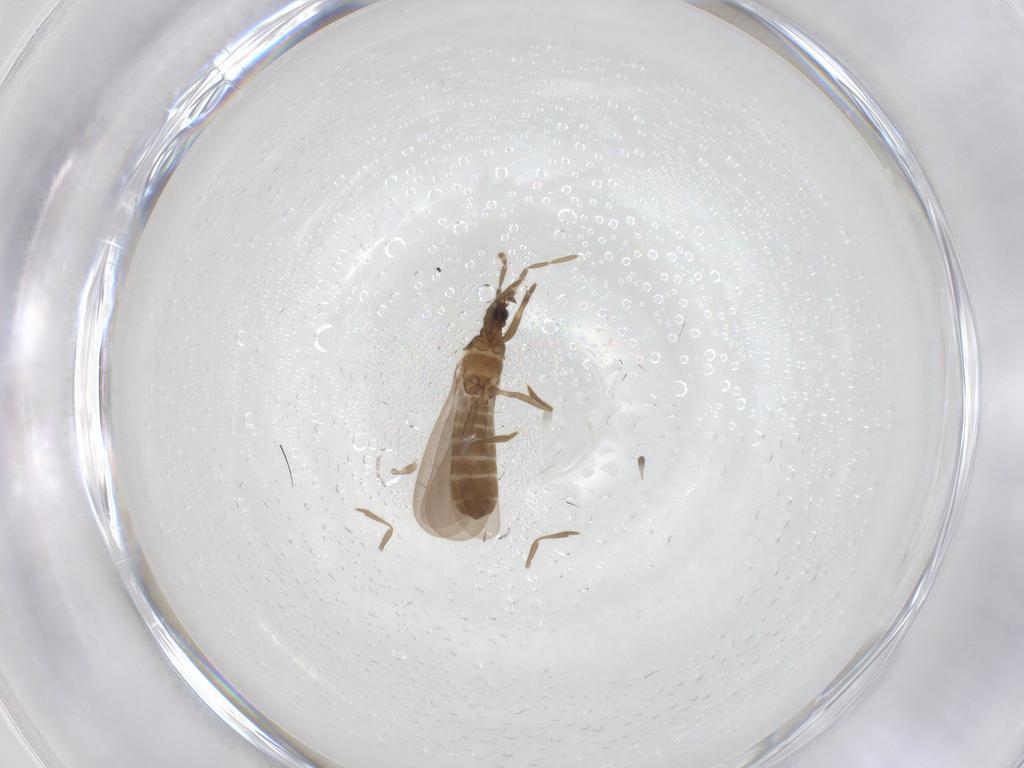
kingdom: Animalia
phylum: Arthropoda
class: Insecta
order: Hemiptera
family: Enicocephalidae
